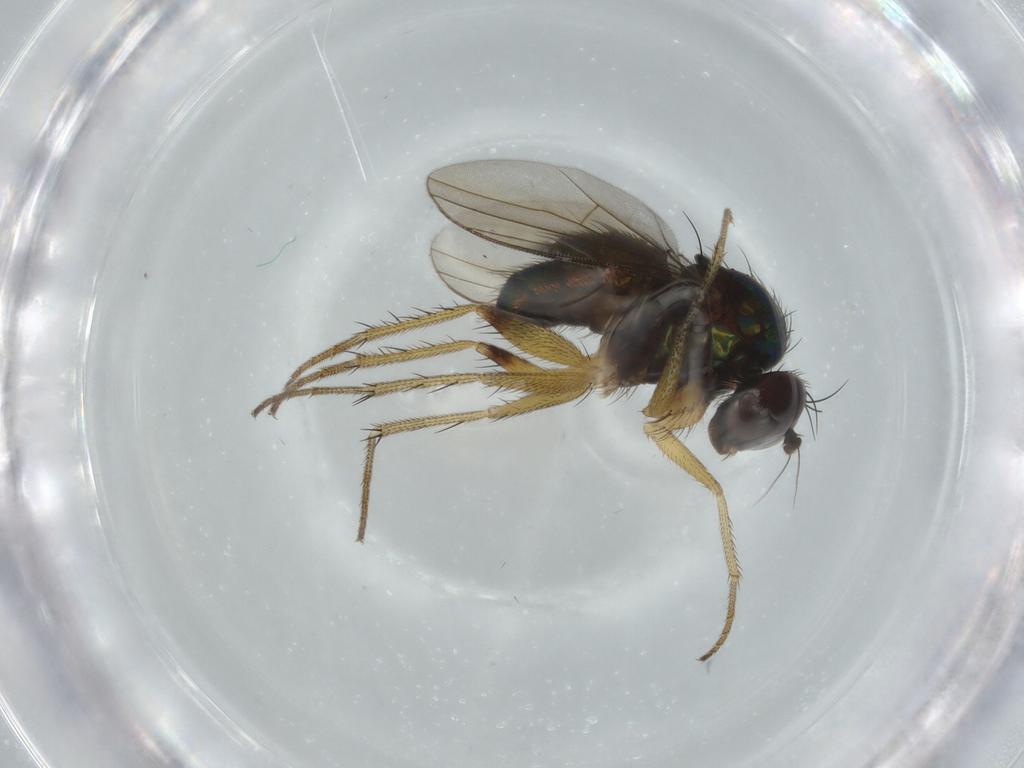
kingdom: Animalia
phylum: Arthropoda
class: Insecta
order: Diptera
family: Dolichopodidae
